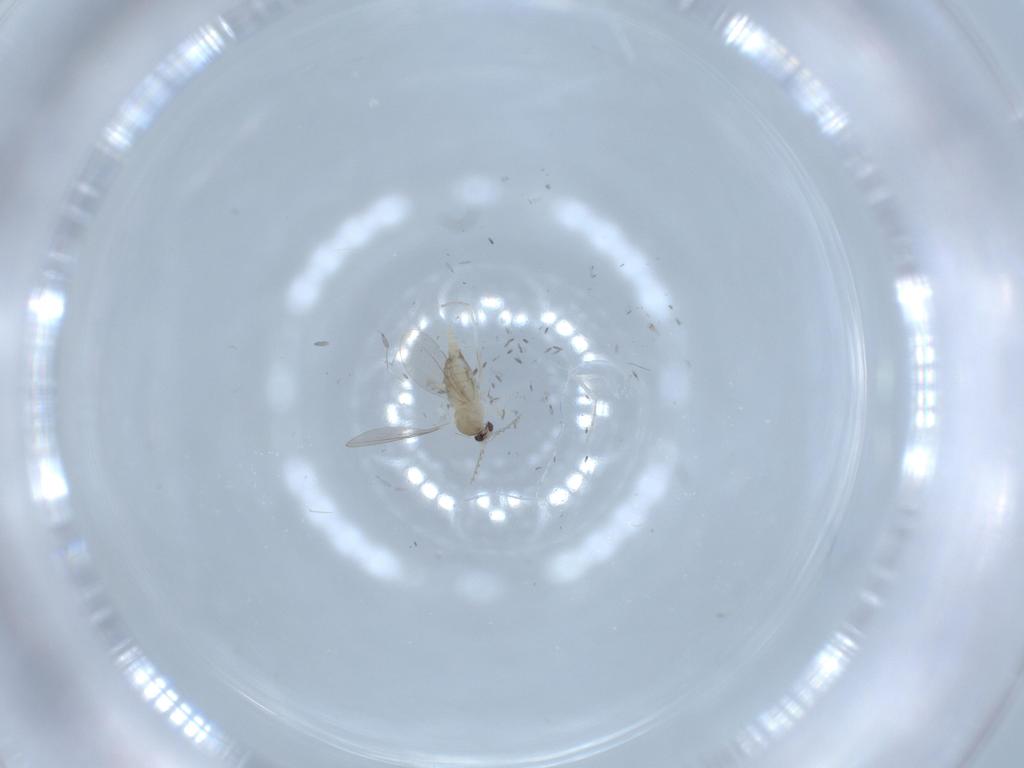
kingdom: Animalia
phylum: Arthropoda
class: Insecta
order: Diptera
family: Cecidomyiidae
